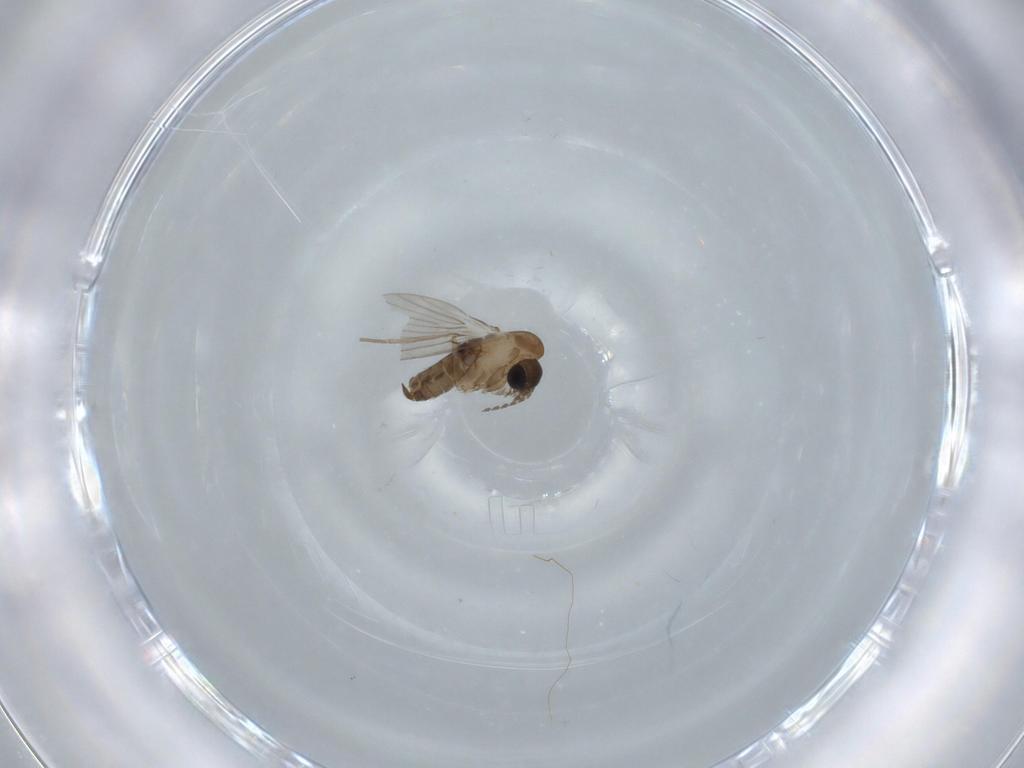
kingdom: Animalia
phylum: Arthropoda
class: Insecta
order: Diptera
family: Psychodidae
